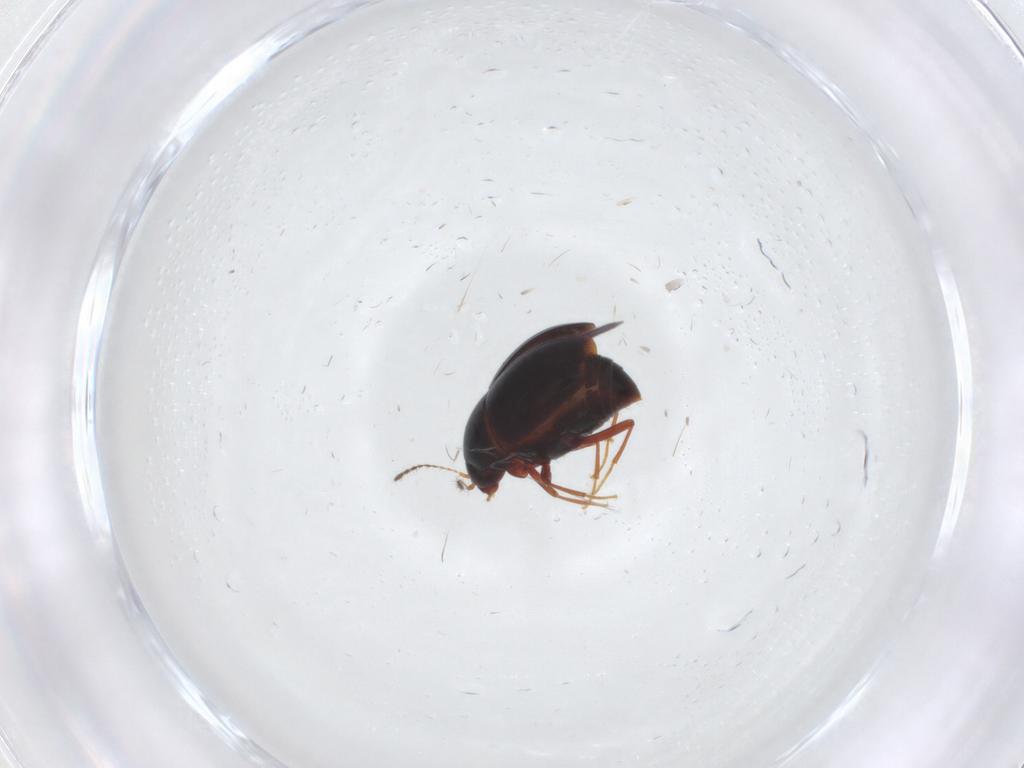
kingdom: Animalia
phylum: Arthropoda
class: Insecta
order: Coleoptera
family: Staphylinidae
